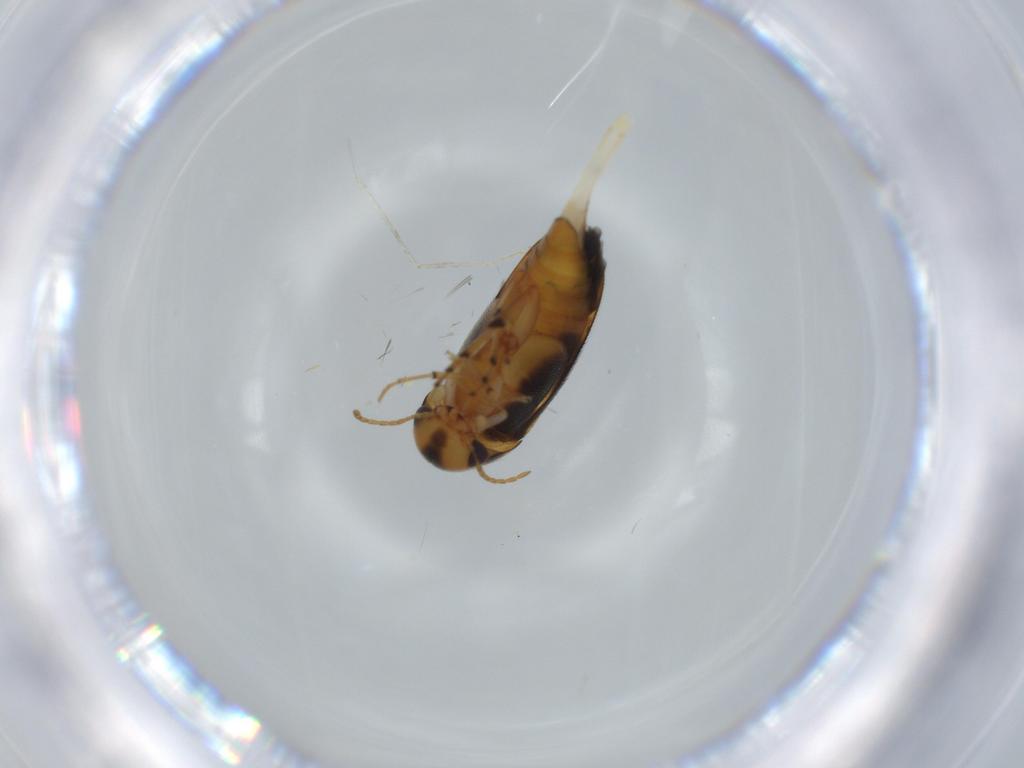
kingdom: Animalia
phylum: Arthropoda
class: Insecta
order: Coleoptera
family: Mordellidae
